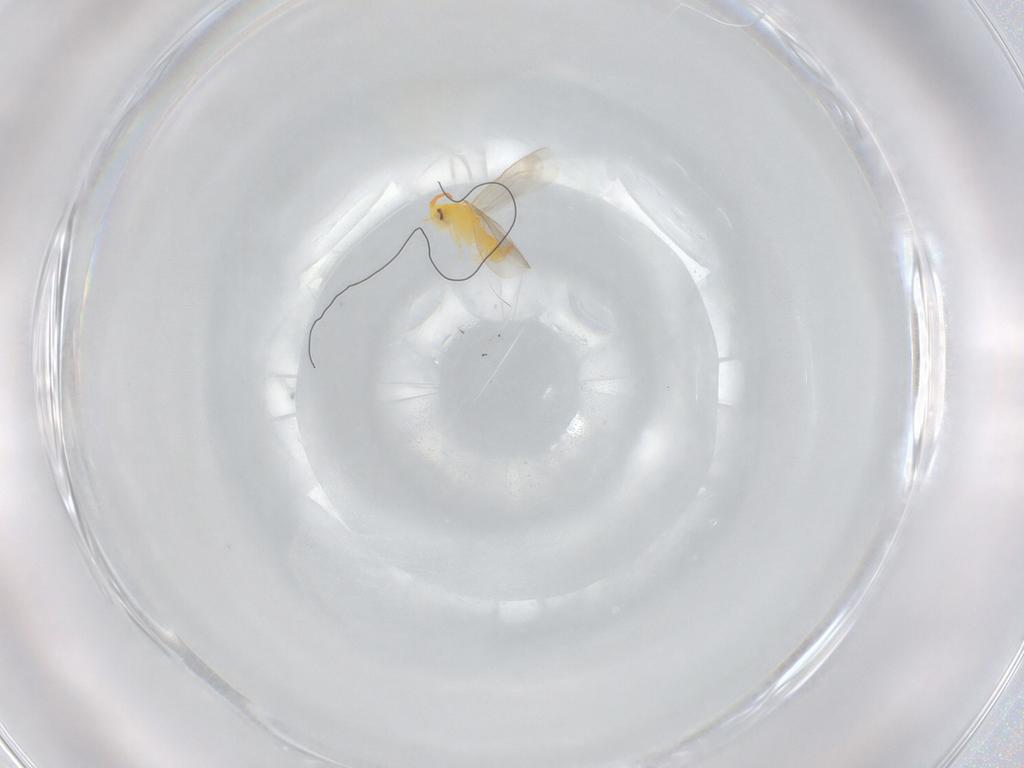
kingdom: Animalia
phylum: Arthropoda
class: Insecta
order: Hemiptera
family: Aleyrodidae
